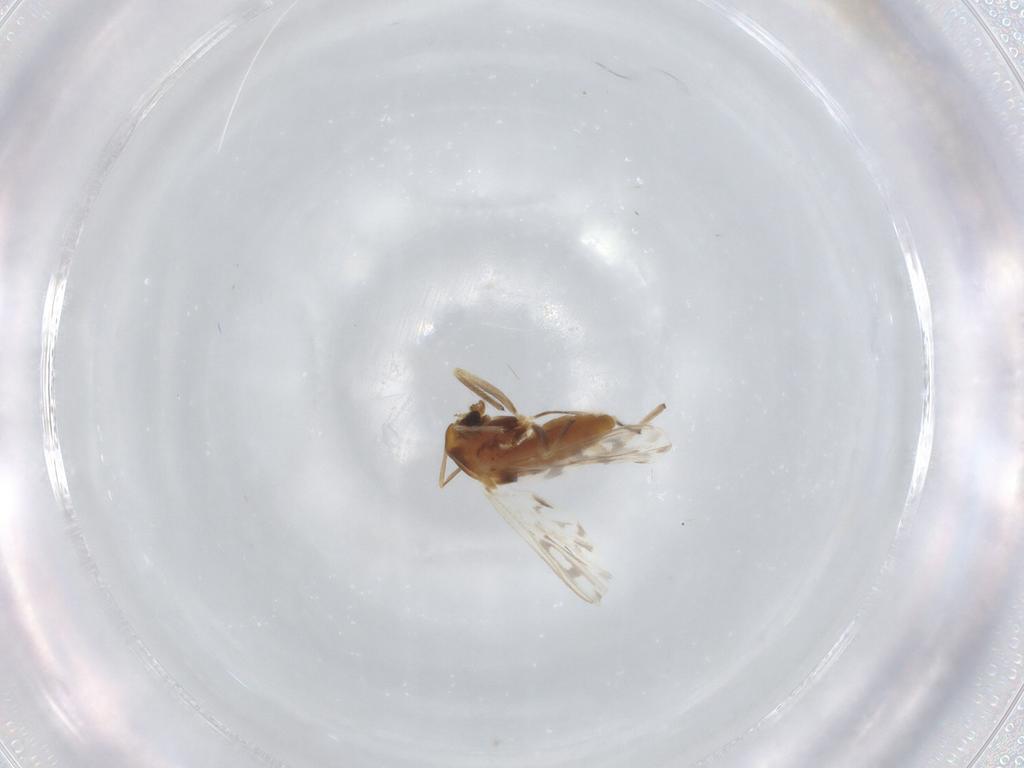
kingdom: Animalia
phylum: Arthropoda
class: Insecta
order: Diptera
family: Chironomidae
